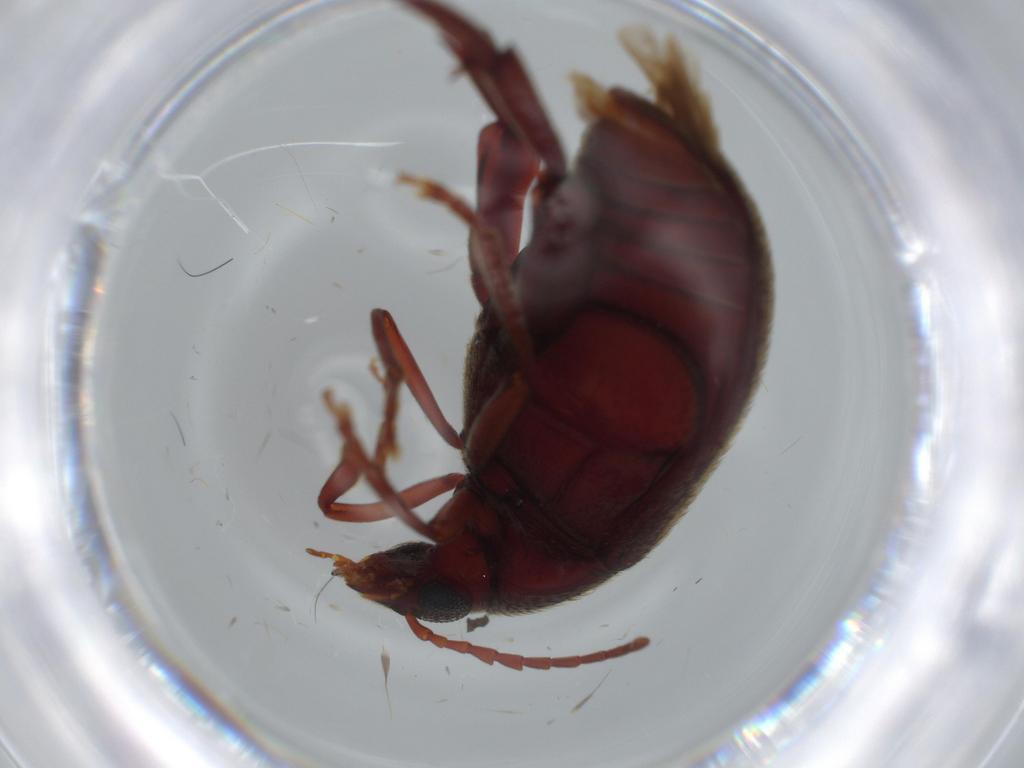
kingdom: Animalia
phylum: Arthropoda
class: Insecta
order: Coleoptera
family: Chrysomelidae
